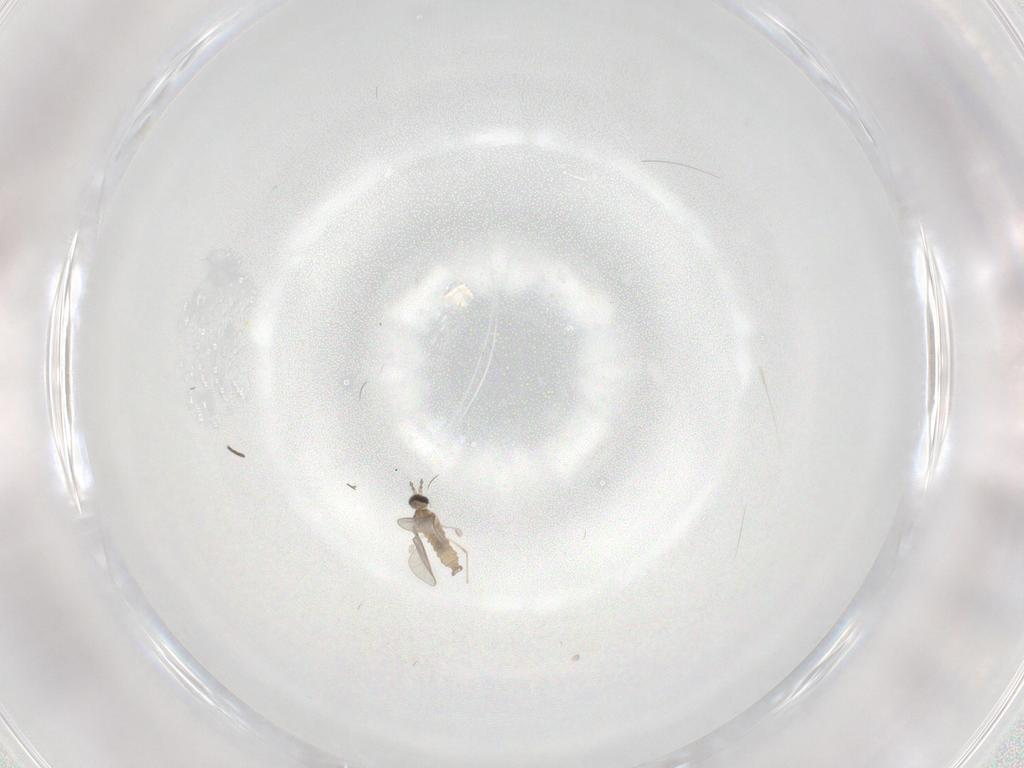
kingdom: Animalia
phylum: Arthropoda
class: Insecta
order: Diptera
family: Cecidomyiidae
